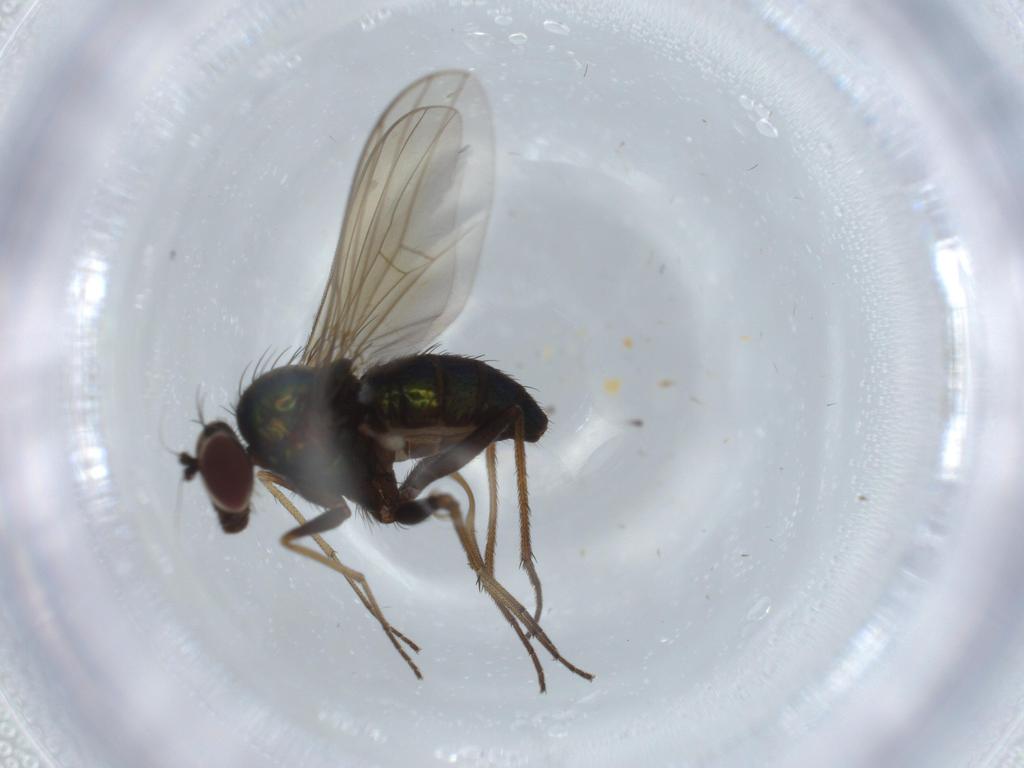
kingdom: Animalia
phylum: Arthropoda
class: Insecta
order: Diptera
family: Dolichopodidae
